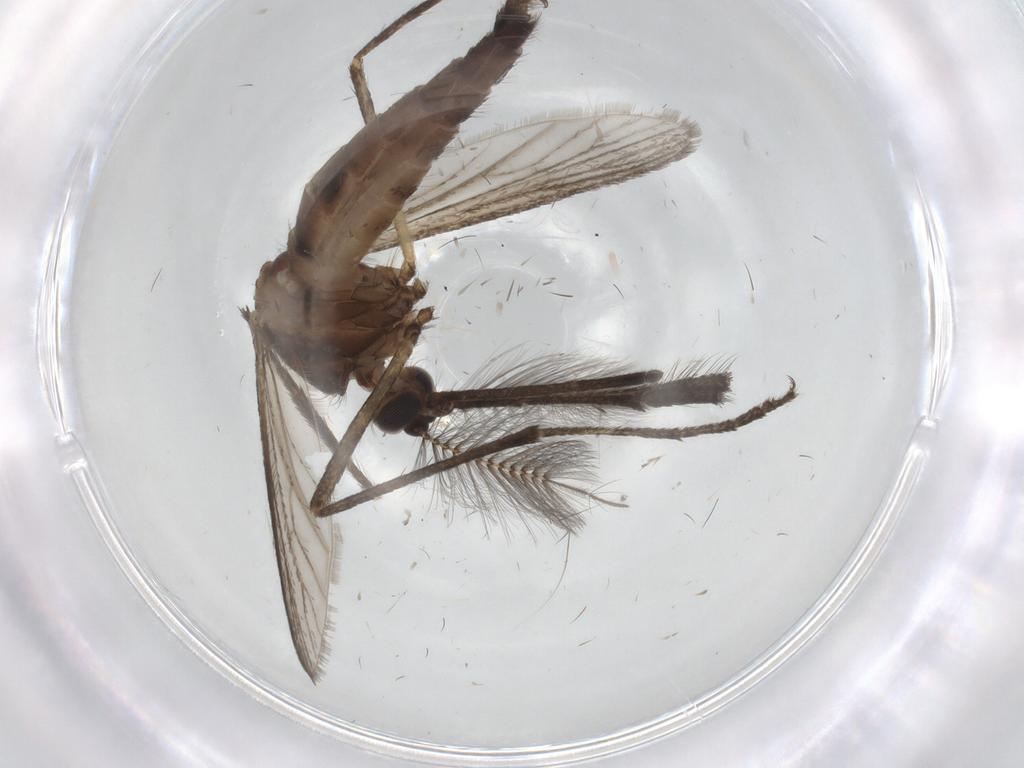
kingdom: Animalia
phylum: Arthropoda
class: Insecta
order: Diptera
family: Sciaridae
